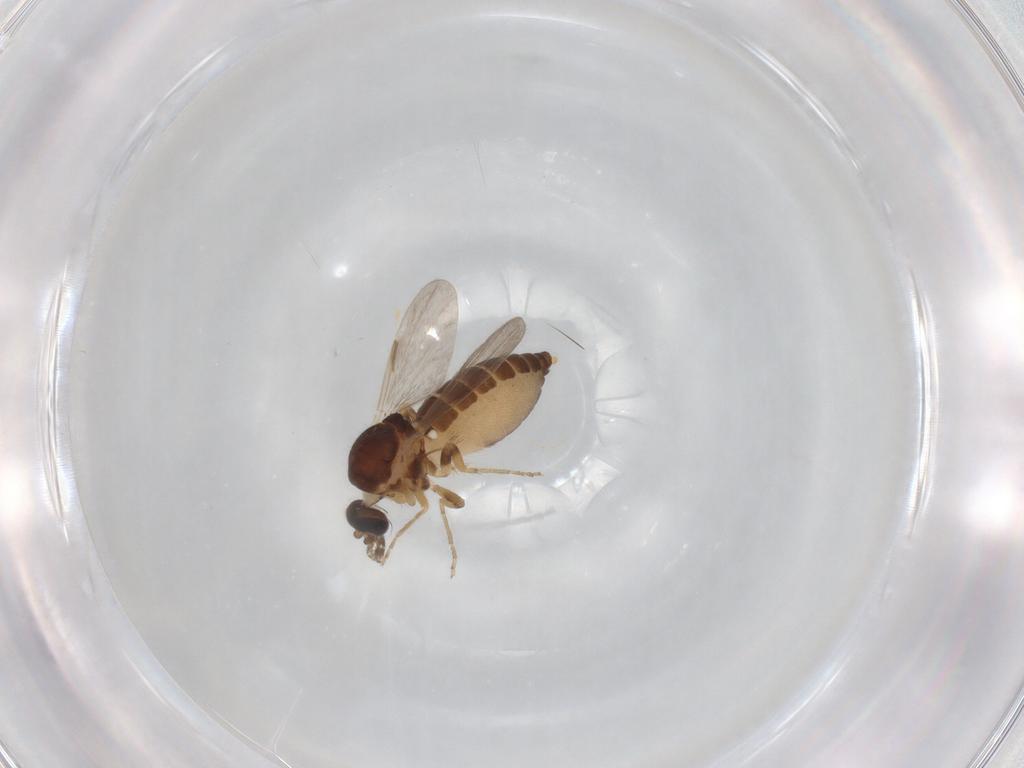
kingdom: Animalia
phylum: Arthropoda
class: Insecta
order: Diptera
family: Ceratopogonidae
